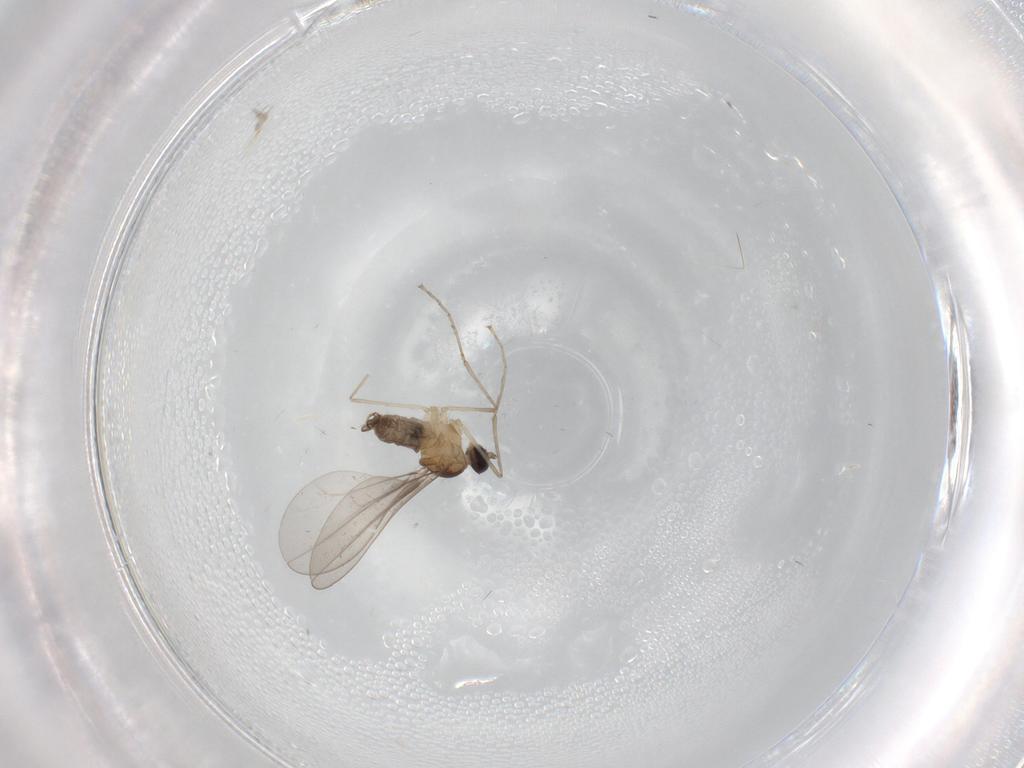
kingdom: Animalia
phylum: Arthropoda
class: Insecta
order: Diptera
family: Cecidomyiidae
